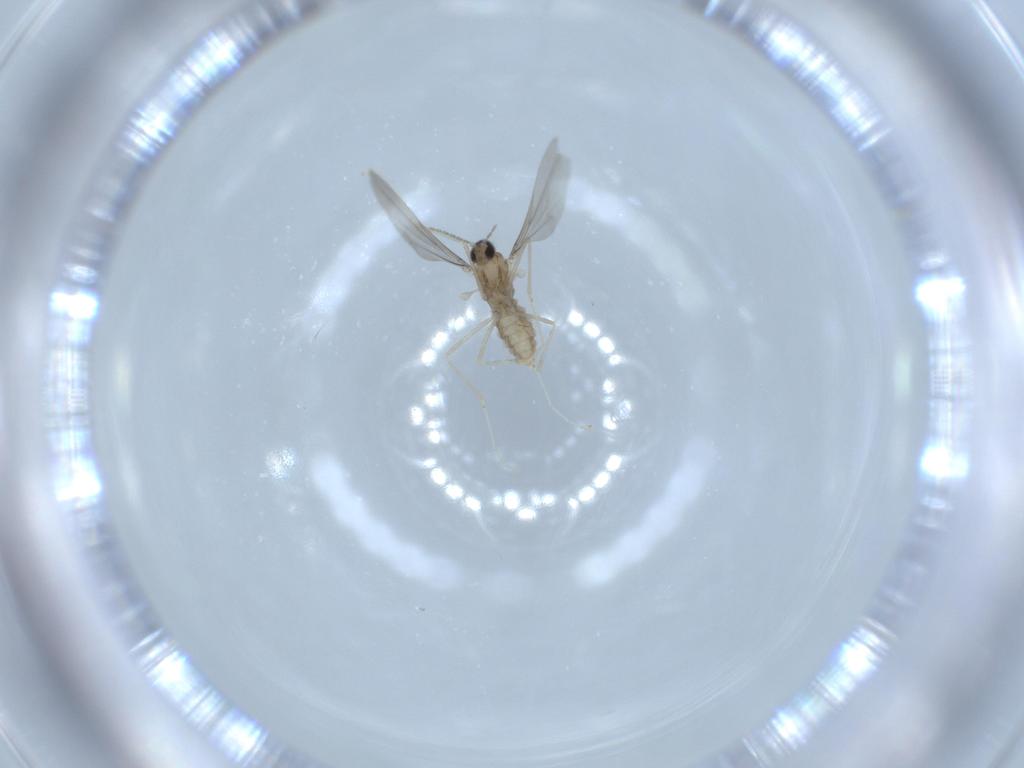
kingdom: Animalia
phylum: Arthropoda
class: Insecta
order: Diptera
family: Cecidomyiidae
